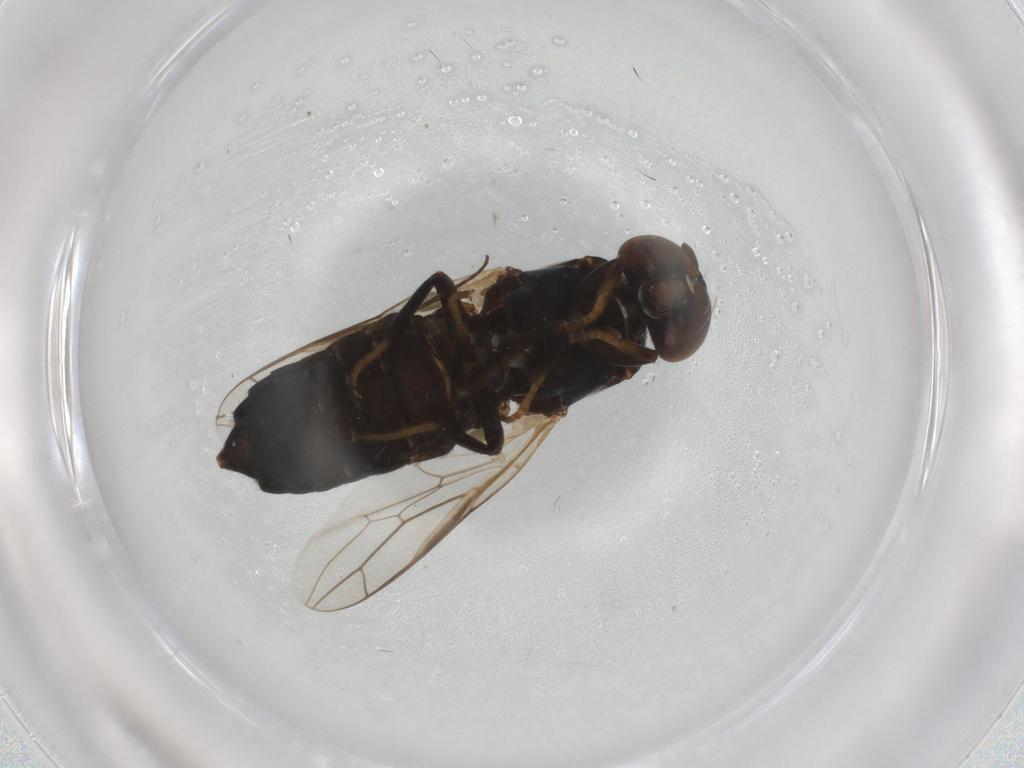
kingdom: Animalia
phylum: Arthropoda
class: Insecta
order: Diptera
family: Scenopinidae
